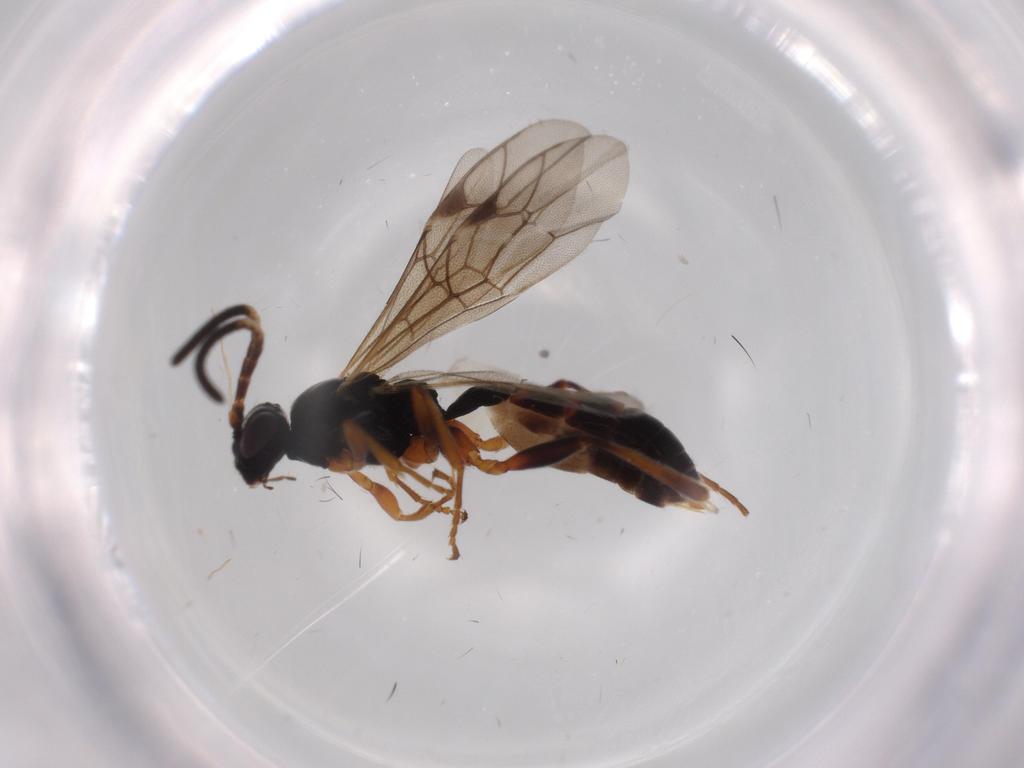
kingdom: Animalia
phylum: Arthropoda
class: Insecta
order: Hymenoptera
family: Ichneumonidae
